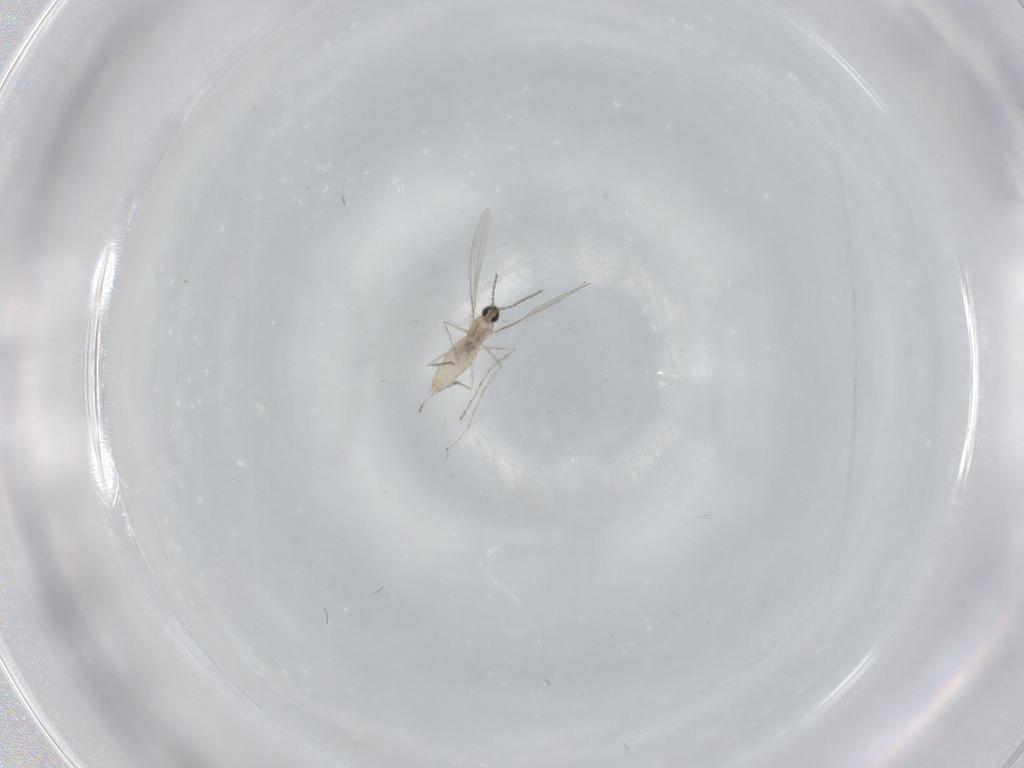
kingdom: Animalia
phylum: Arthropoda
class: Insecta
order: Diptera
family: Cecidomyiidae
